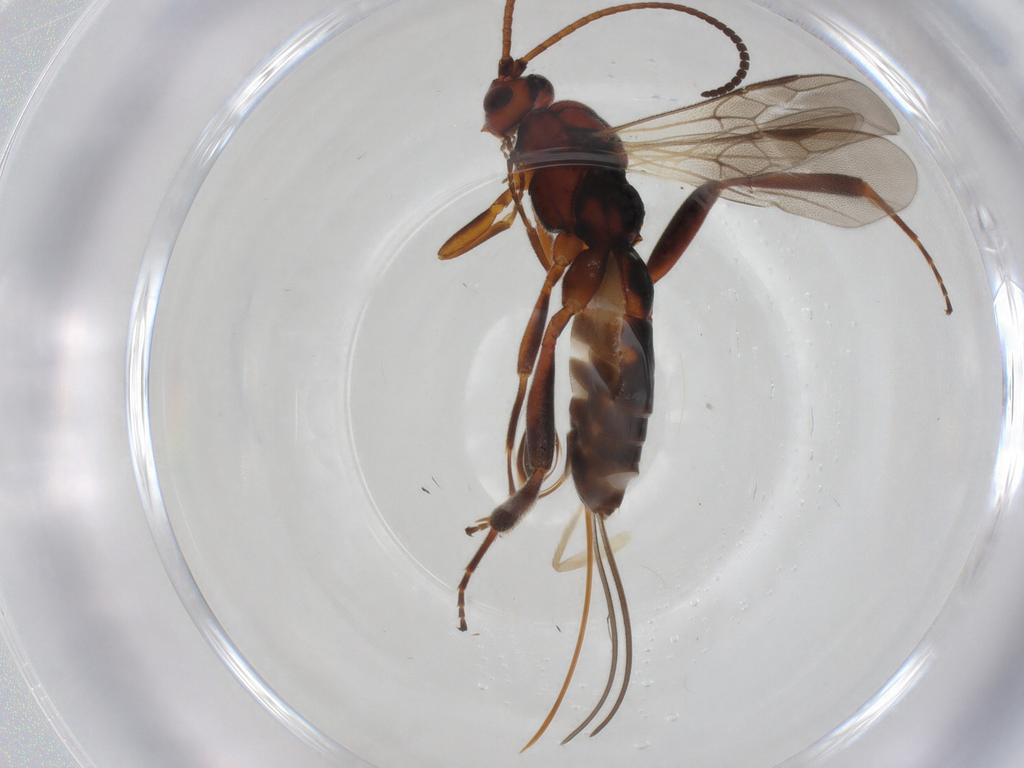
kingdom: Animalia
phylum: Arthropoda
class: Insecta
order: Hymenoptera
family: Braconidae
